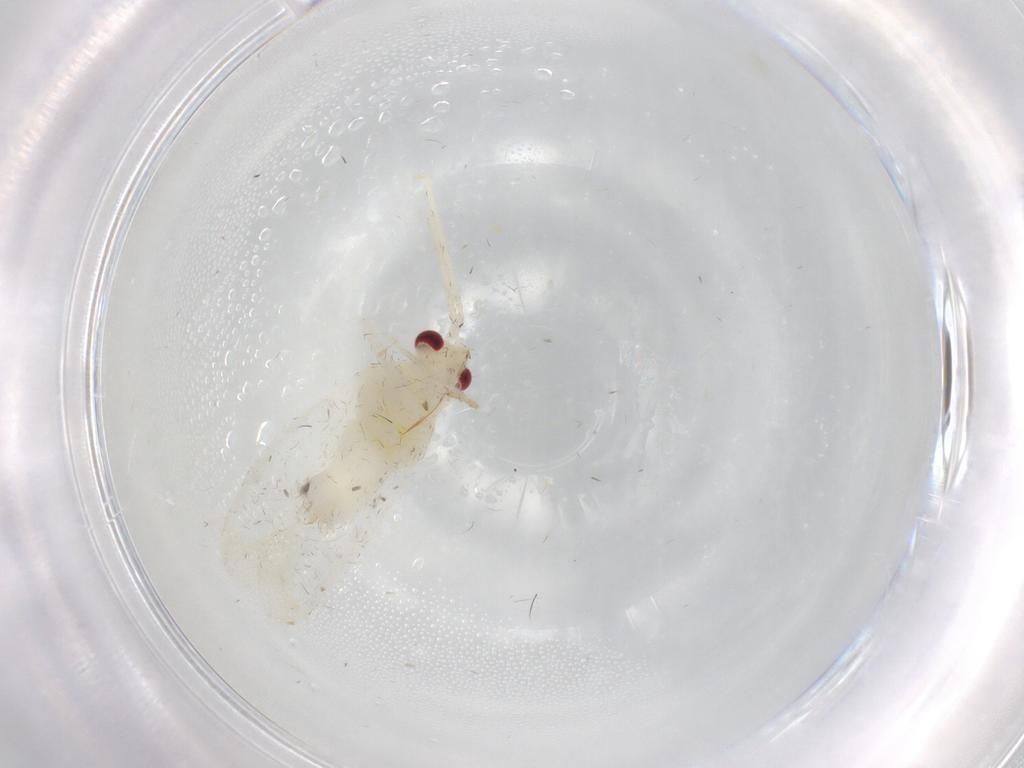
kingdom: Animalia
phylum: Arthropoda
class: Insecta
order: Hemiptera
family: Miridae
